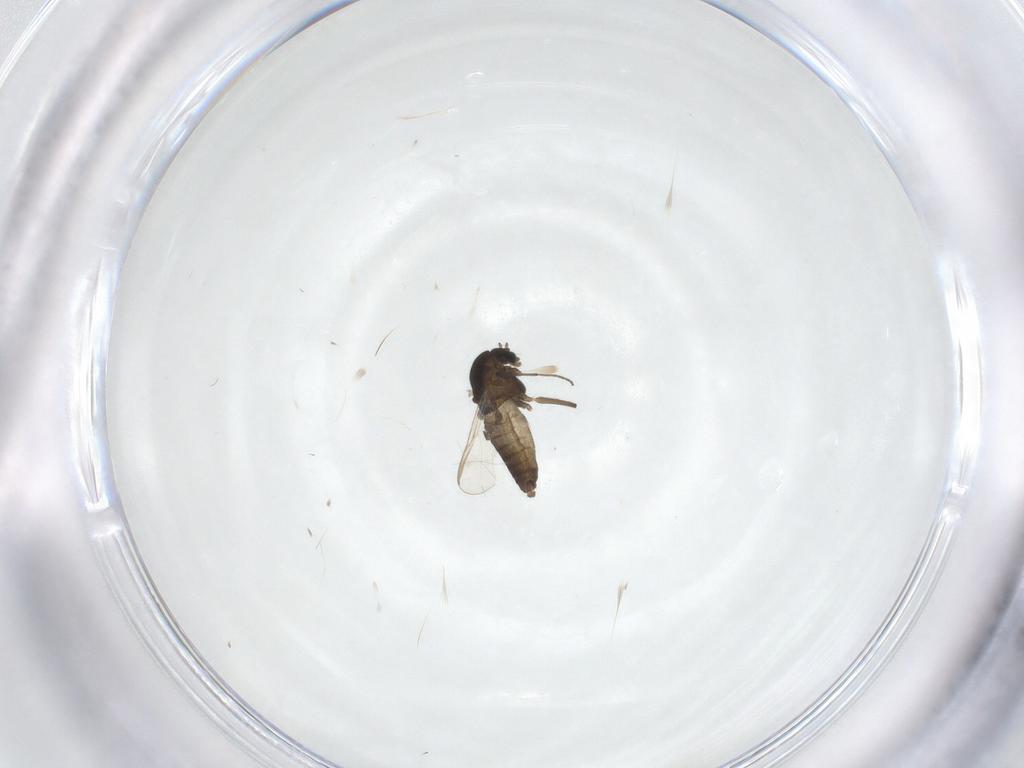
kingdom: Animalia
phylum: Arthropoda
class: Insecta
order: Diptera
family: Chironomidae
